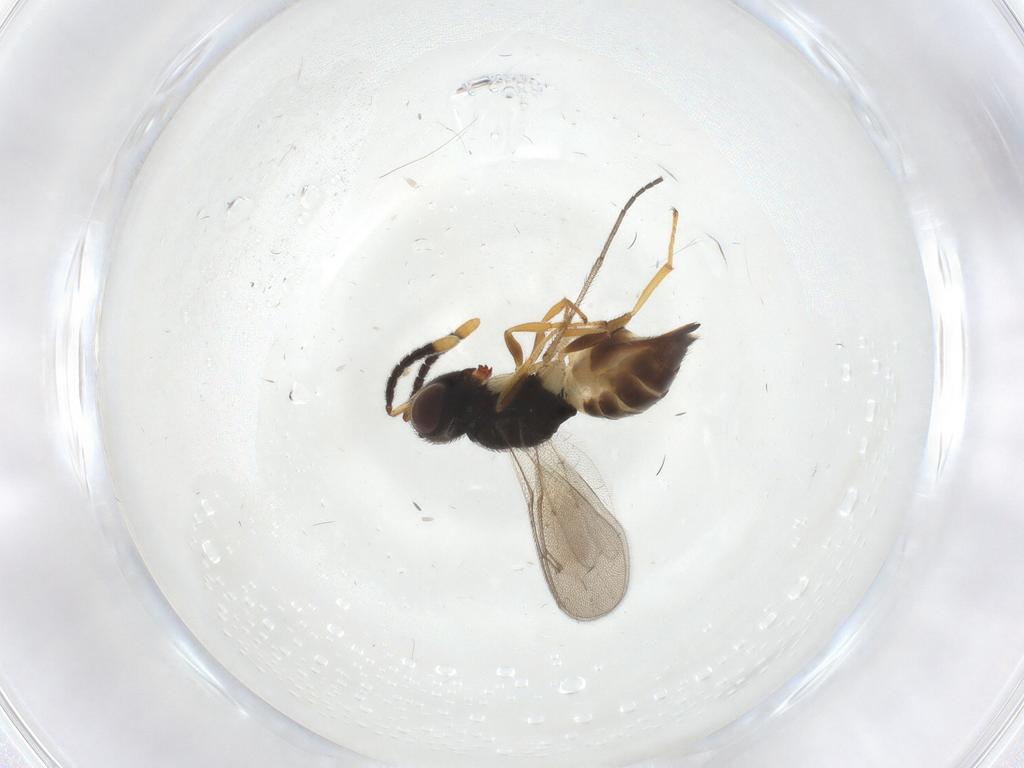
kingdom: Animalia
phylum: Arthropoda
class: Insecta
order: Hymenoptera
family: Pteromalidae
